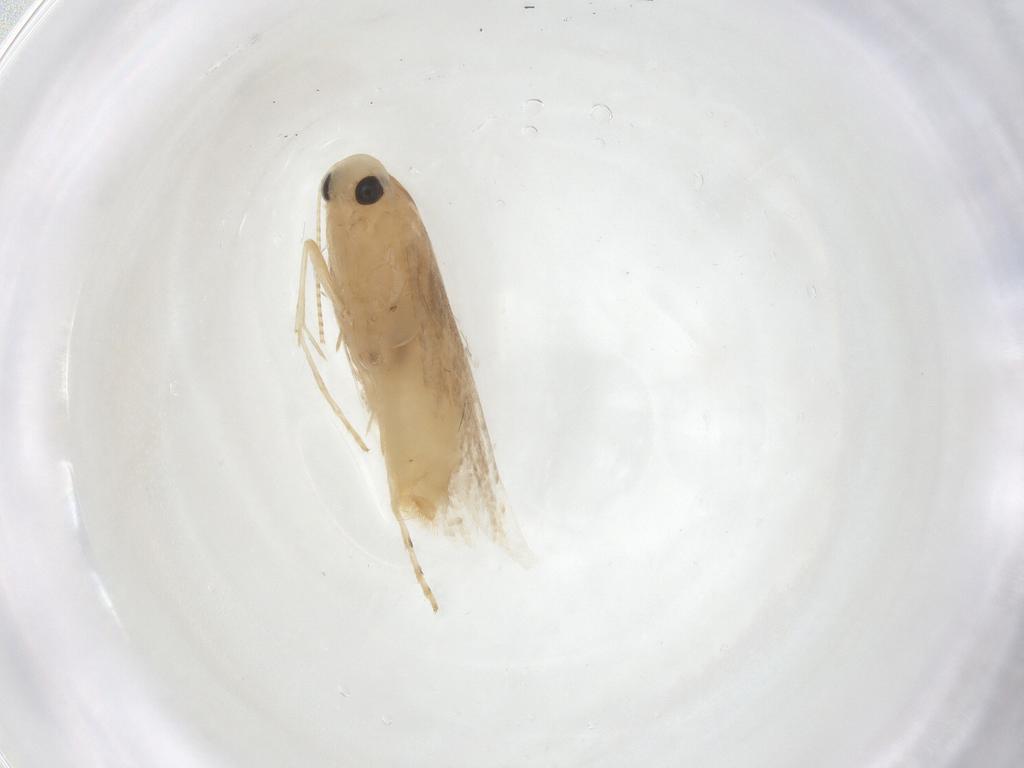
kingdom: Animalia
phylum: Arthropoda
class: Insecta
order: Lepidoptera
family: Gracillariidae
